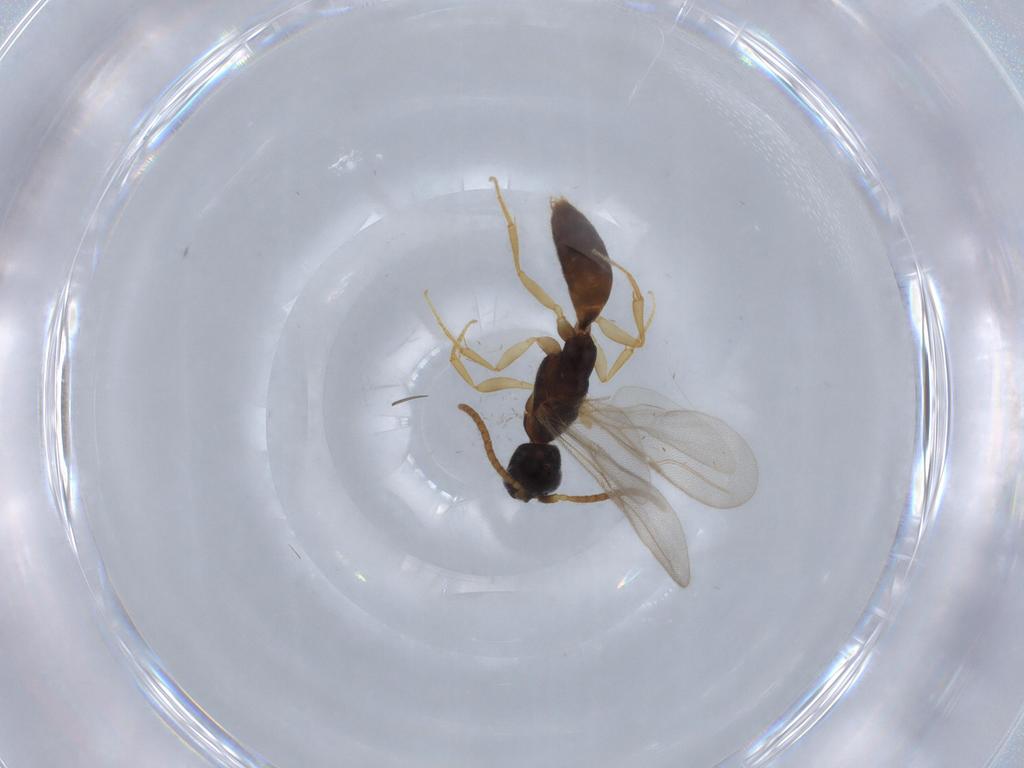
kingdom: Animalia
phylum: Arthropoda
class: Insecta
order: Hymenoptera
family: Bethylidae
